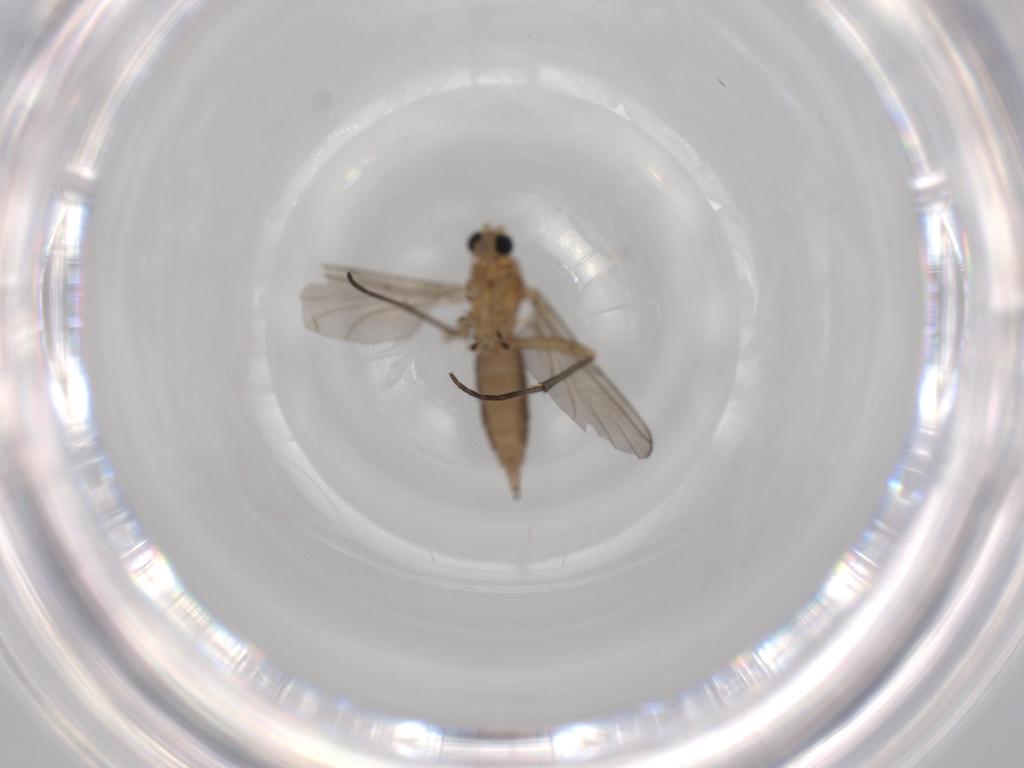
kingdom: Animalia
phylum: Arthropoda
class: Insecta
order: Diptera
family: Sciaridae
